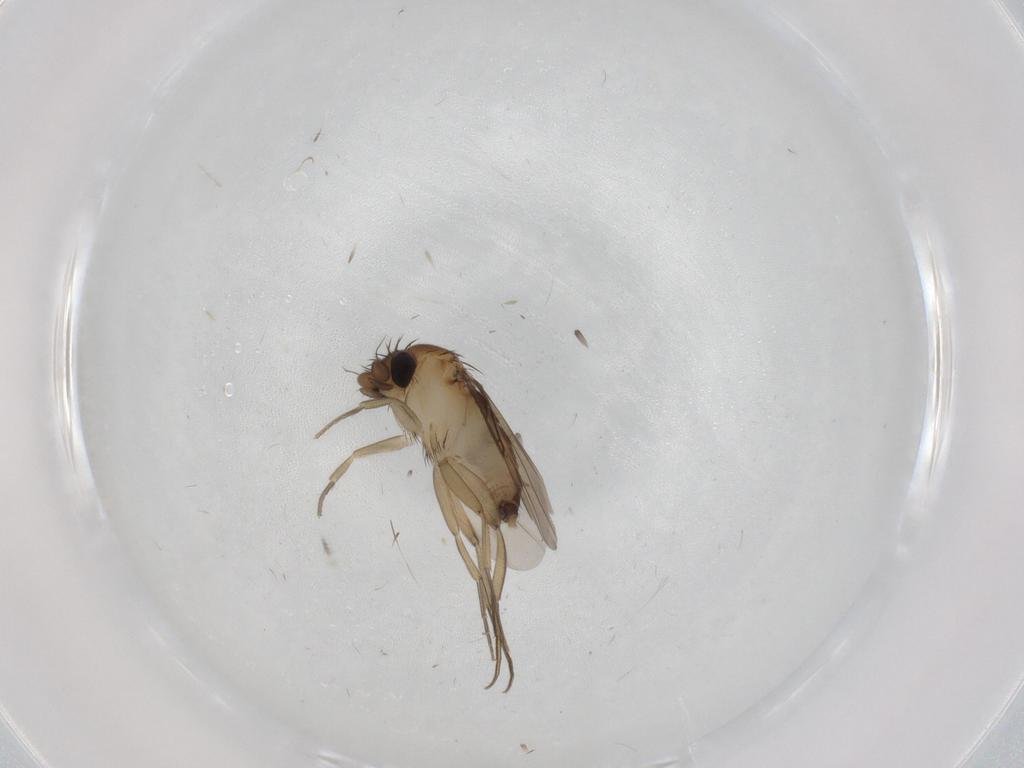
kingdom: Animalia
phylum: Arthropoda
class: Insecta
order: Diptera
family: Phoridae
